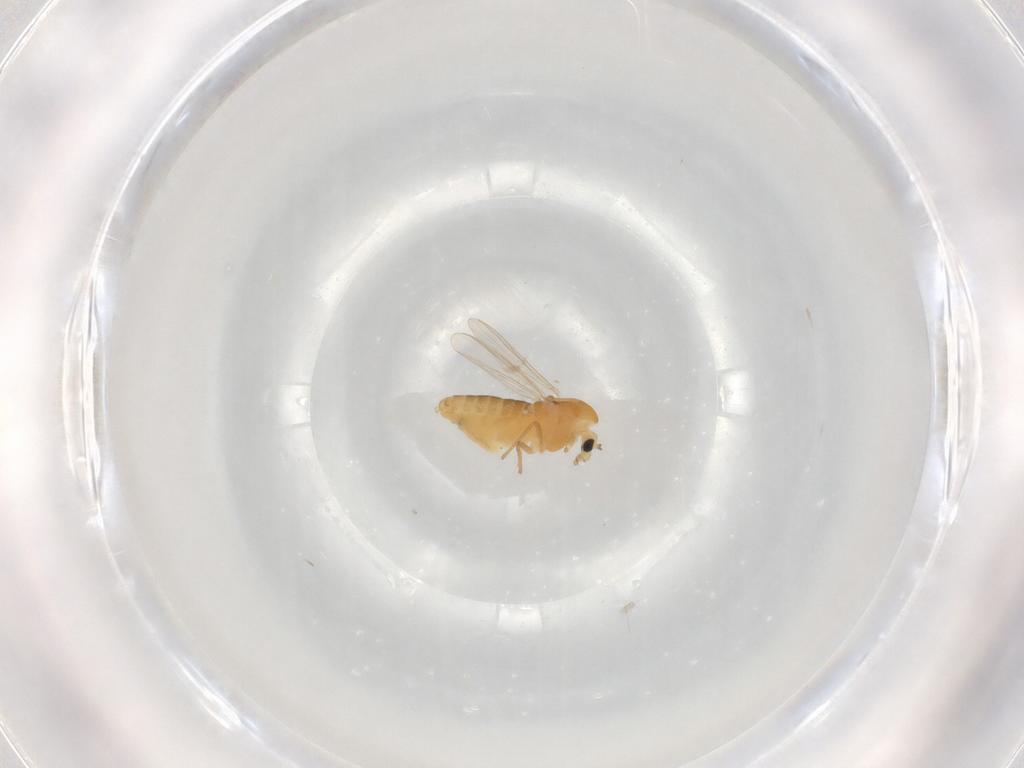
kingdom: Animalia
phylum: Arthropoda
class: Insecta
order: Diptera
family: Chironomidae
